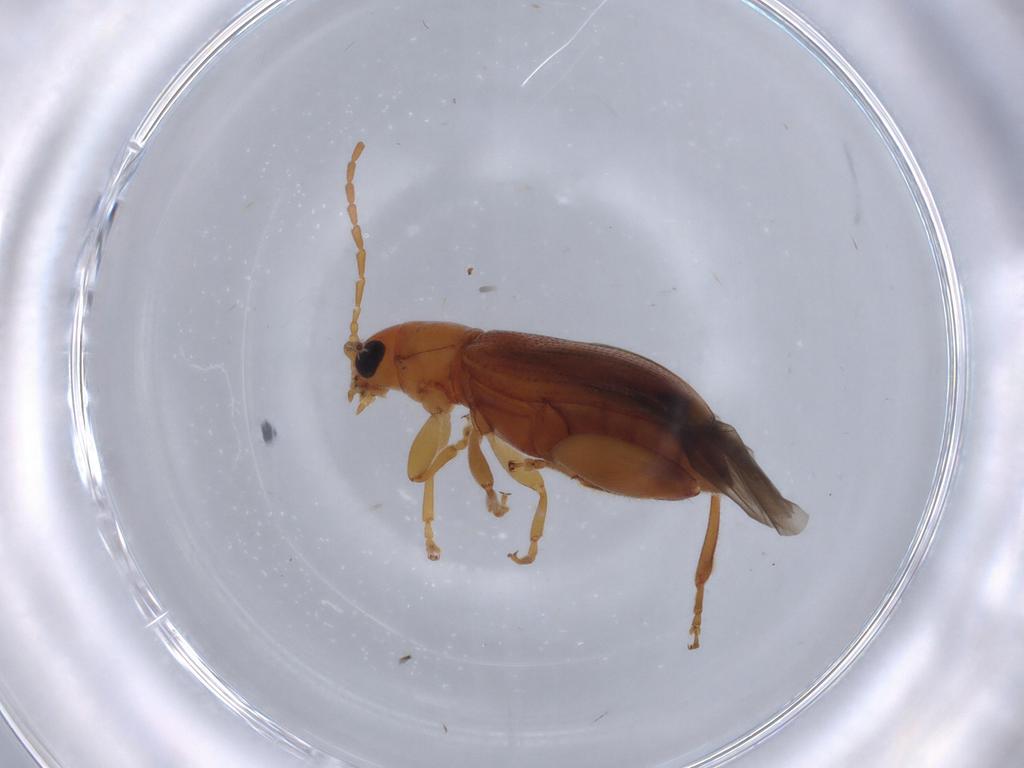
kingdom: Animalia
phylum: Arthropoda
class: Insecta
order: Coleoptera
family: Chrysomelidae
